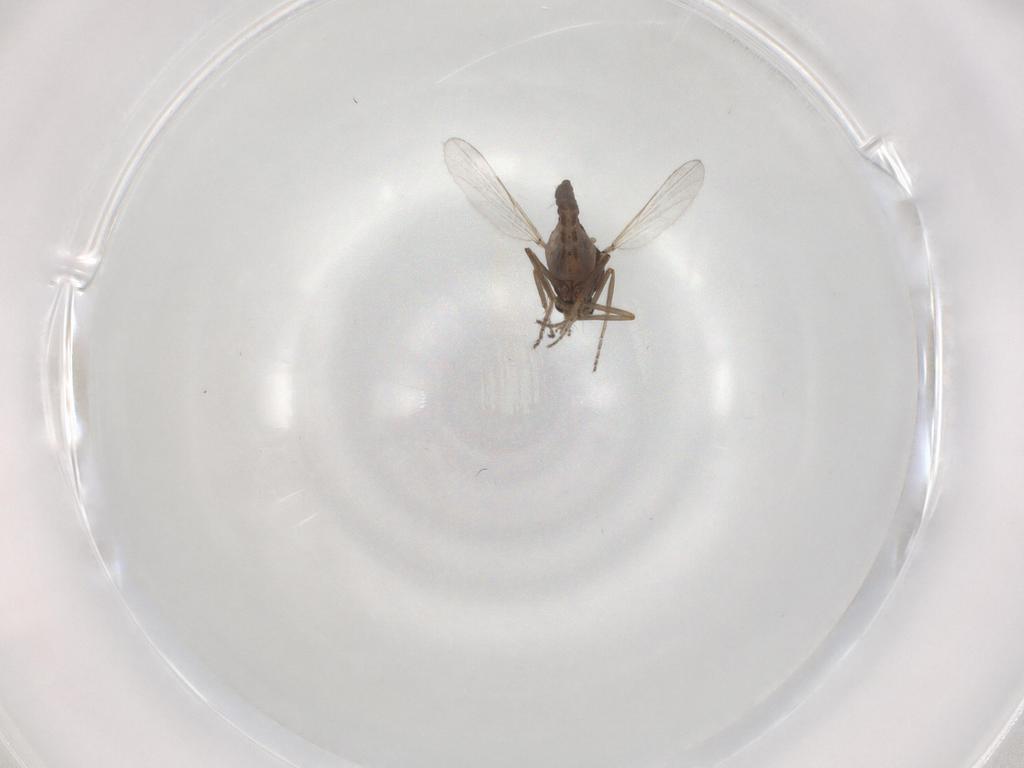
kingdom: Animalia
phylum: Arthropoda
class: Insecta
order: Diptera
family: Ceratopogonidae
